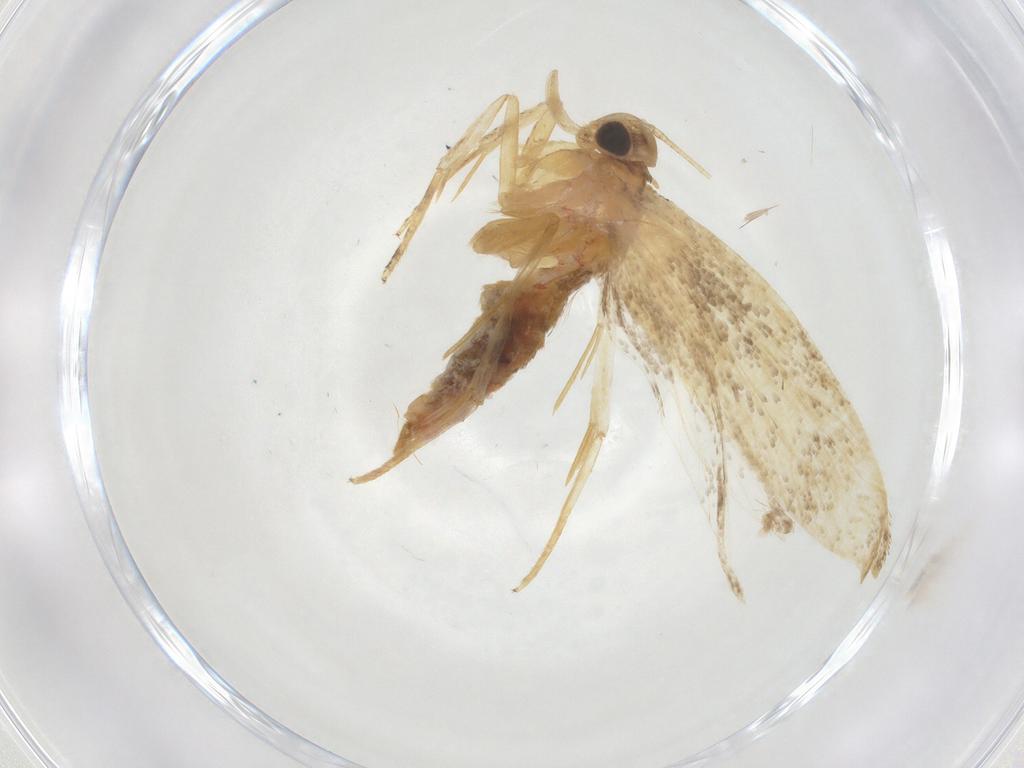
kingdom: Animalia
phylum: Arthropoda
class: Insecta
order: Lepidoptera
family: Autostichidae
